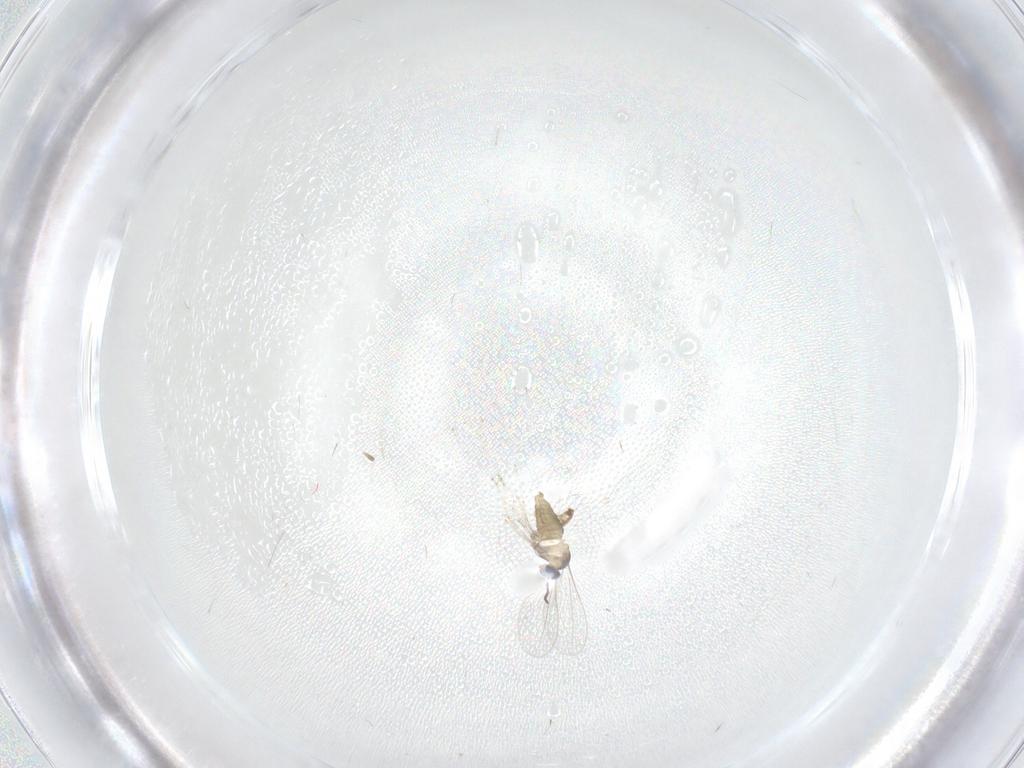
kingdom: Animalia
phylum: Arthropoda
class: Insecta
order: Diptera
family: Cecidomyiidae
